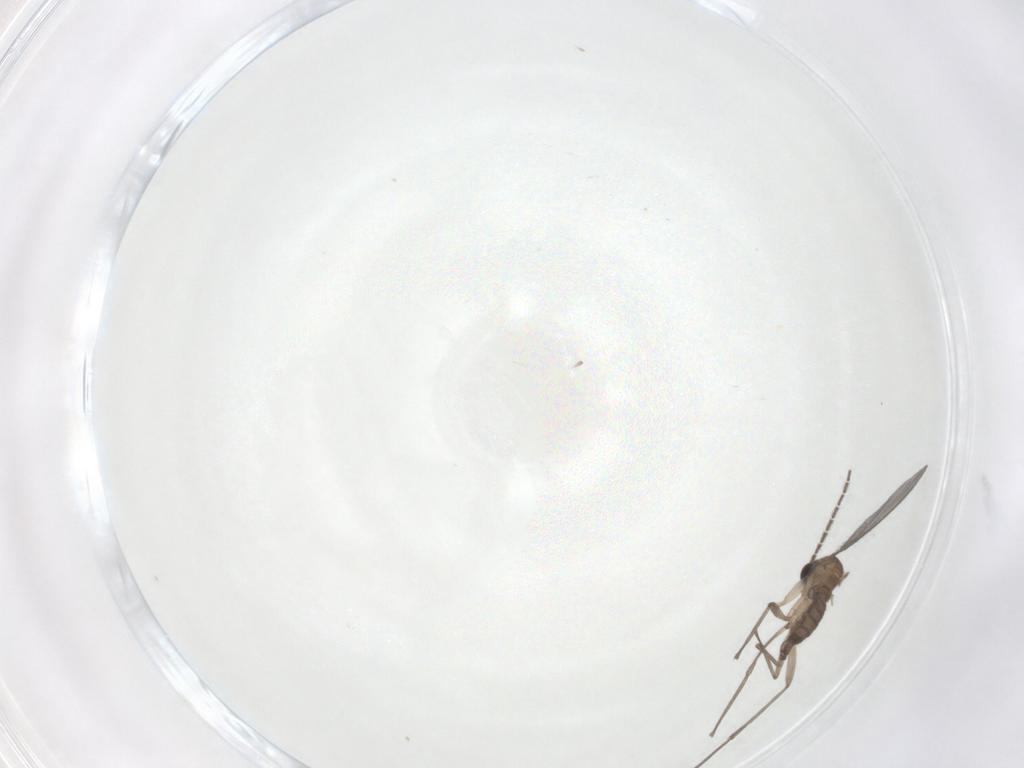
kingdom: Animalia
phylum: Arthropoda
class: Insecta
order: Diptera
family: Sciaridae
